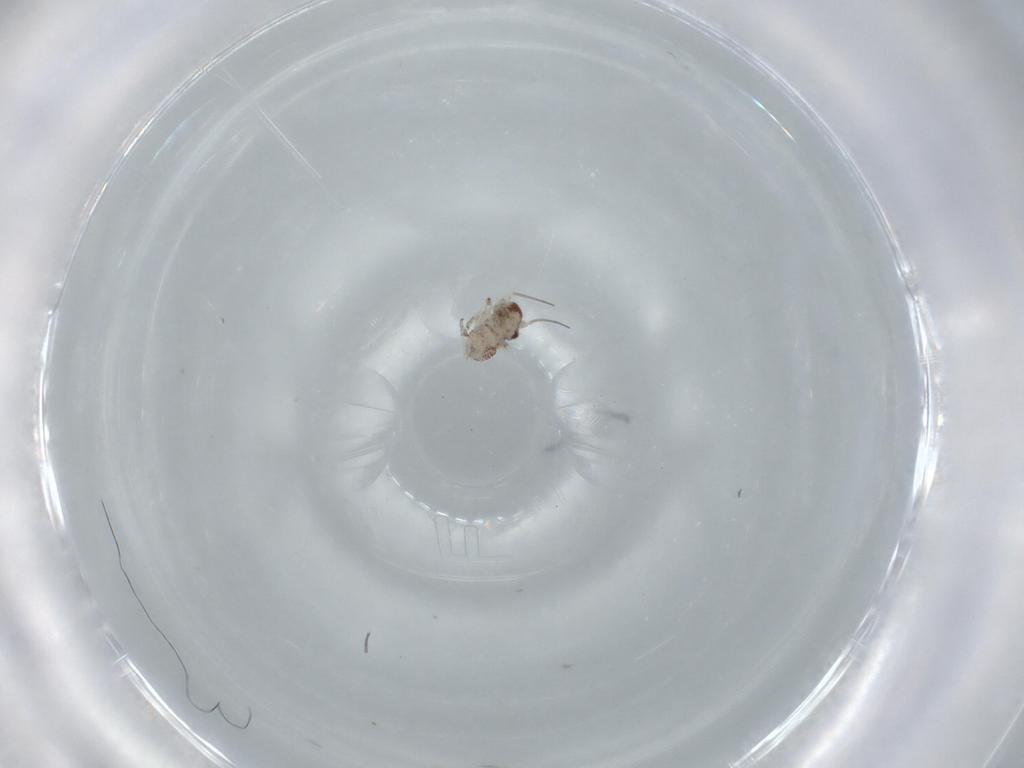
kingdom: Animalia
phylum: Arthropoda
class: Insecta
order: Psocodea
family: Psocidae
